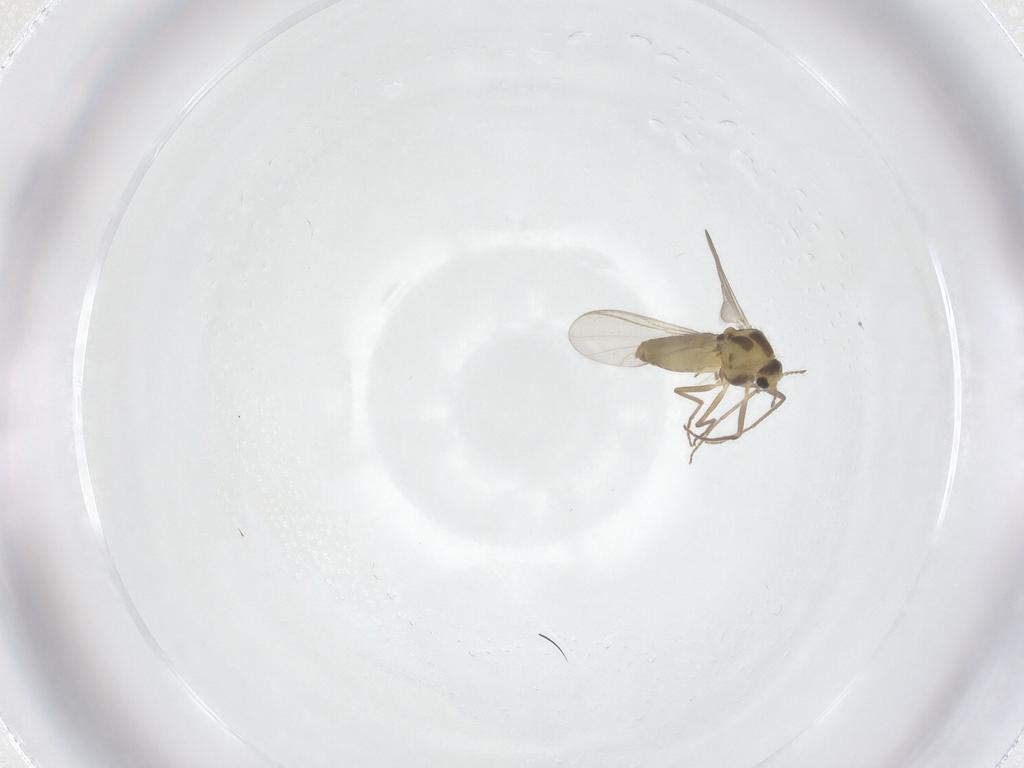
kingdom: Animalia
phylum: Arthropoda
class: Insecta
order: Diptera
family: Chironomidae
